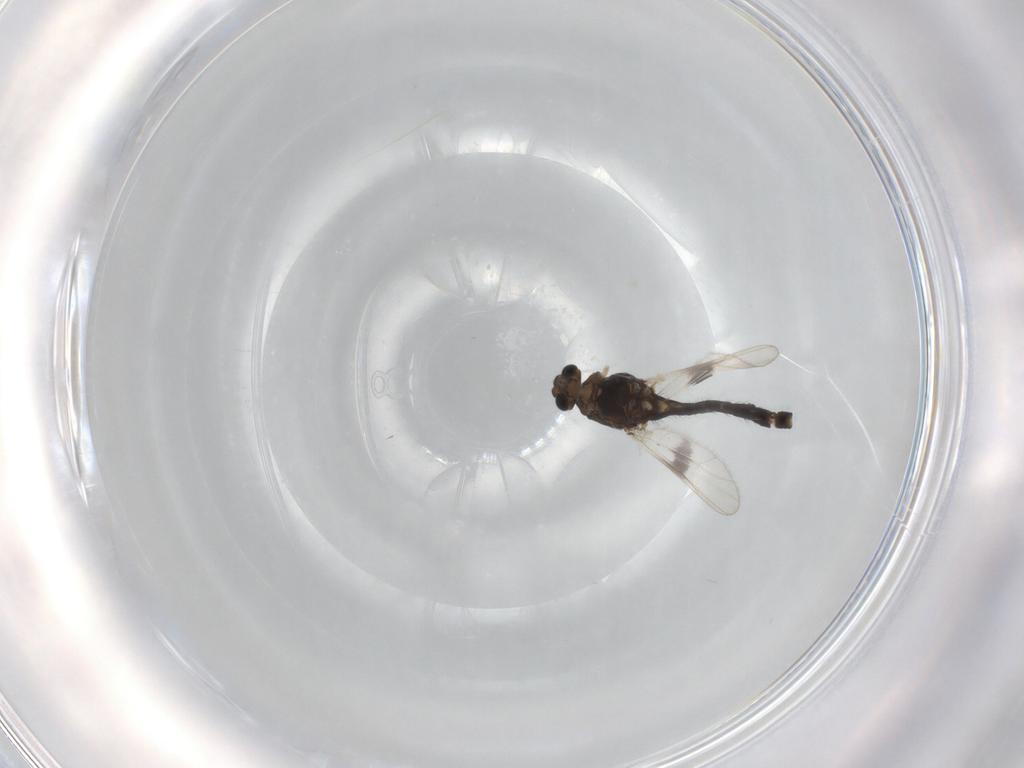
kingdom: Animalia
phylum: Arthropoda
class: Insecta
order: Diptera
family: Chironomidae
